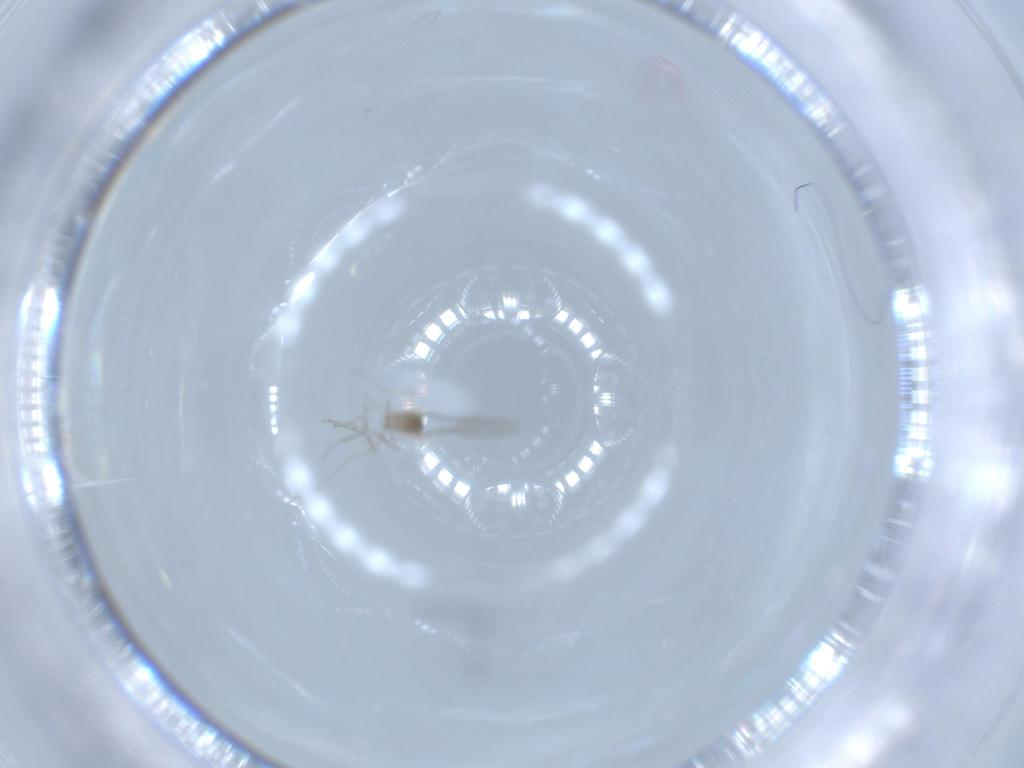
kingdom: Animalia
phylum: Arthropoda
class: Insecta
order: Diptera
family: Cecidomyiidae
